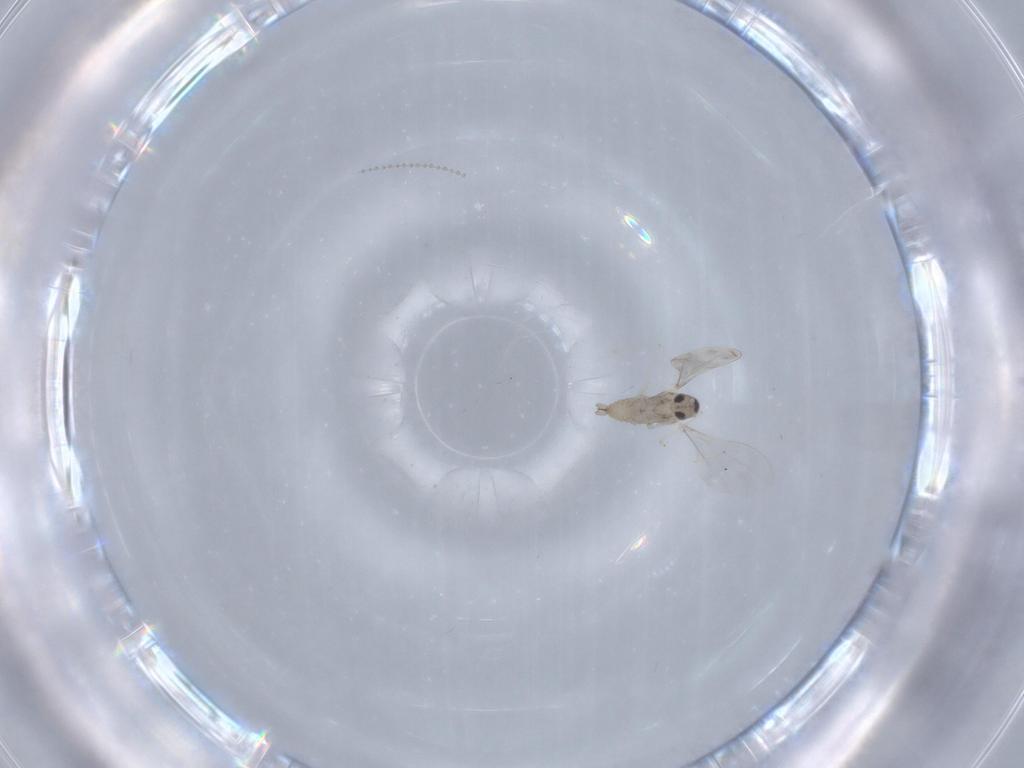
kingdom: Animalia
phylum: Arthropoda
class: Insecta
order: Diptera
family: Cecidomyiidae
